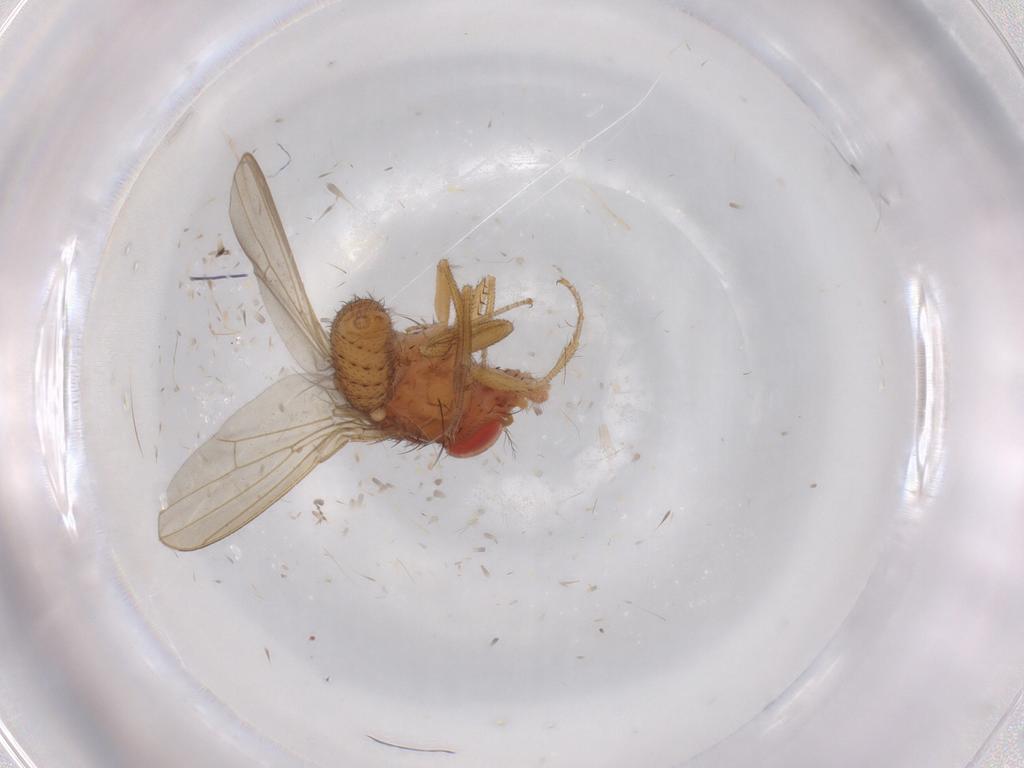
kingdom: Animalia
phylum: Arthropoda
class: Insecta
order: Diptera
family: Drosophilidae
